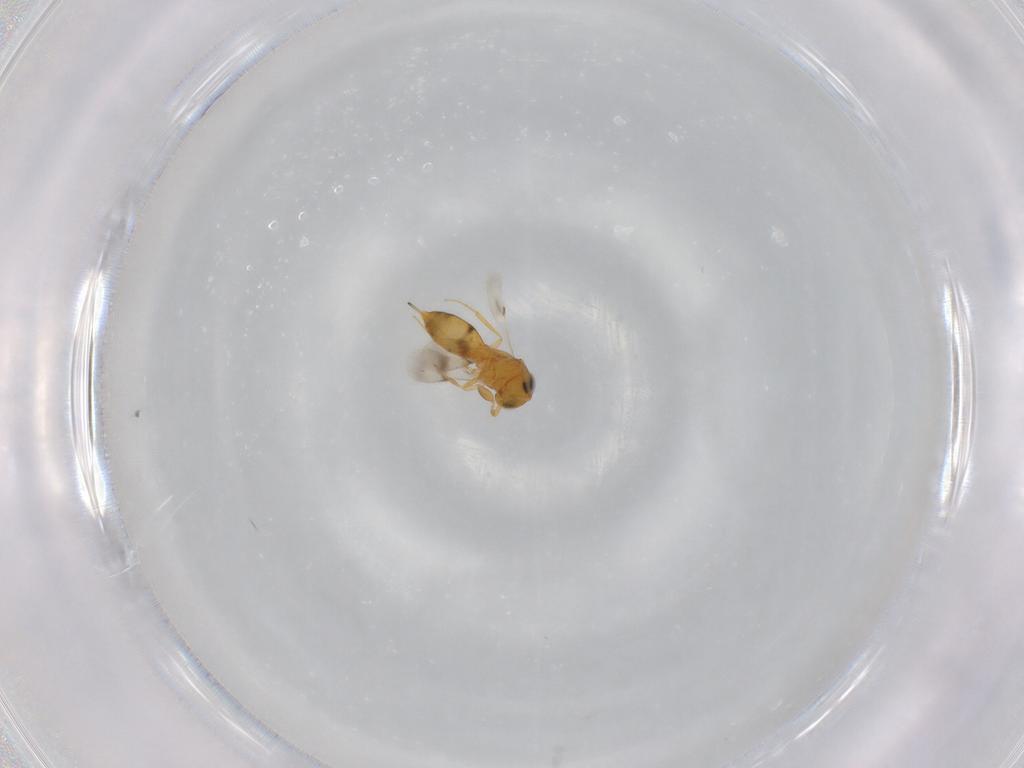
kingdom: Animalia
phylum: Arthropoda
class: Insecta
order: Hymenoptera
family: Scelionidae
